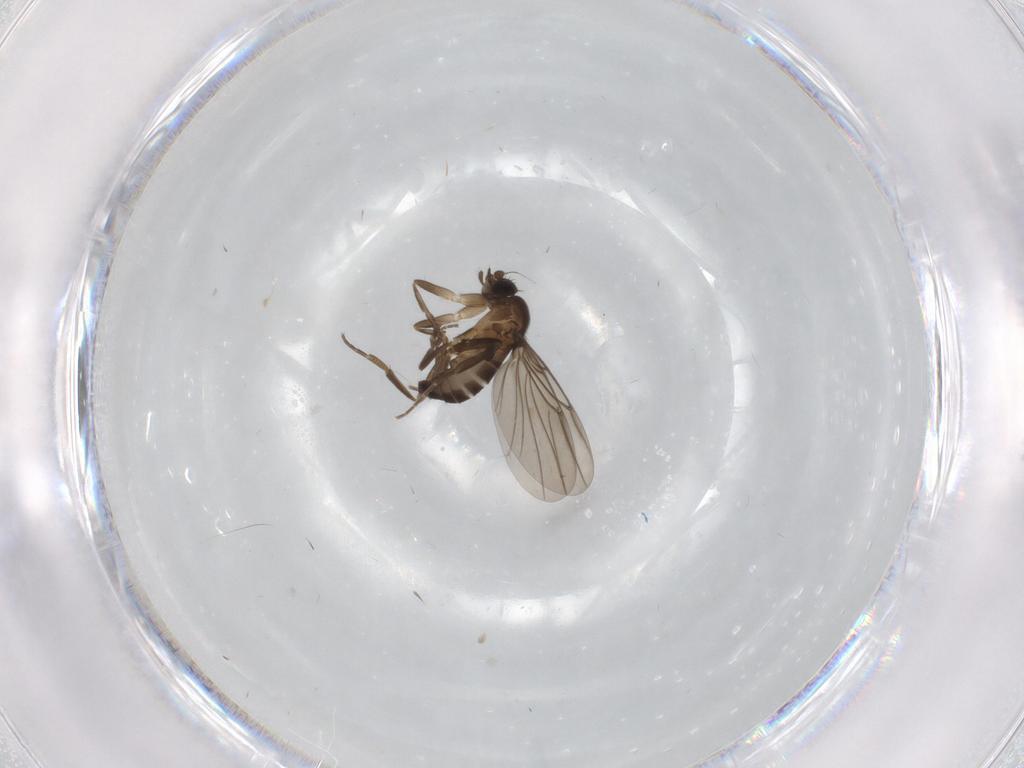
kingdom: Animalia
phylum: Arthropoda
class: Insecta
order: Diptera
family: Phoridae
